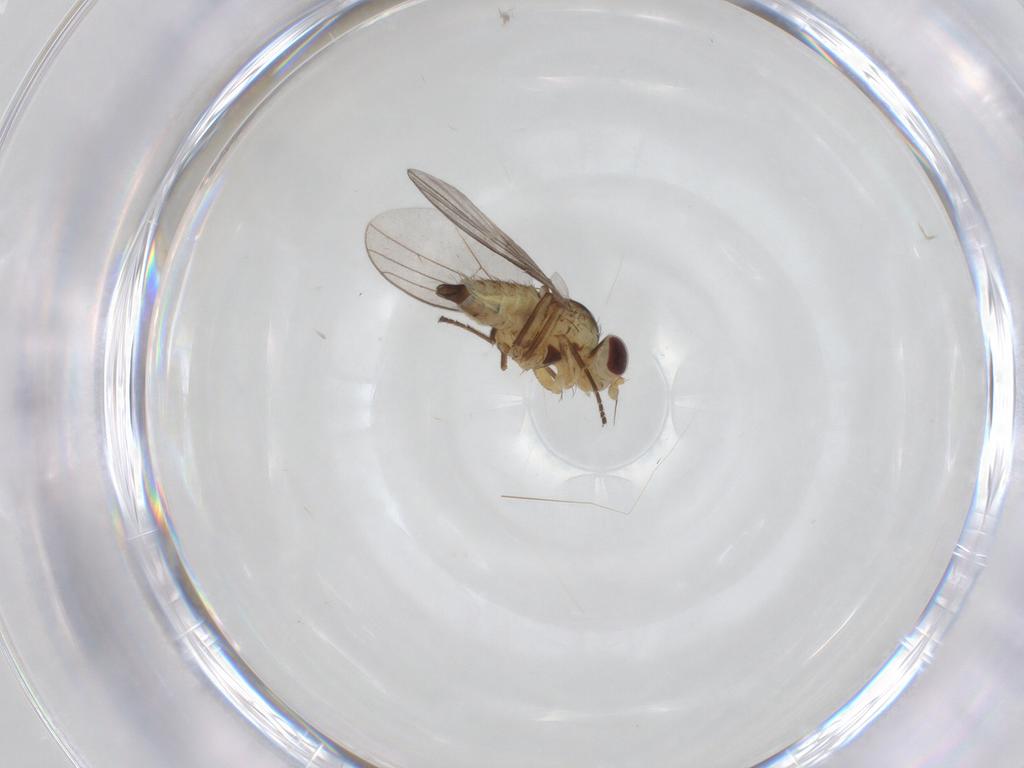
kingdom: Animalia
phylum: Arthropoda
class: Insecta
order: Diptera
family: Agromyzidae
